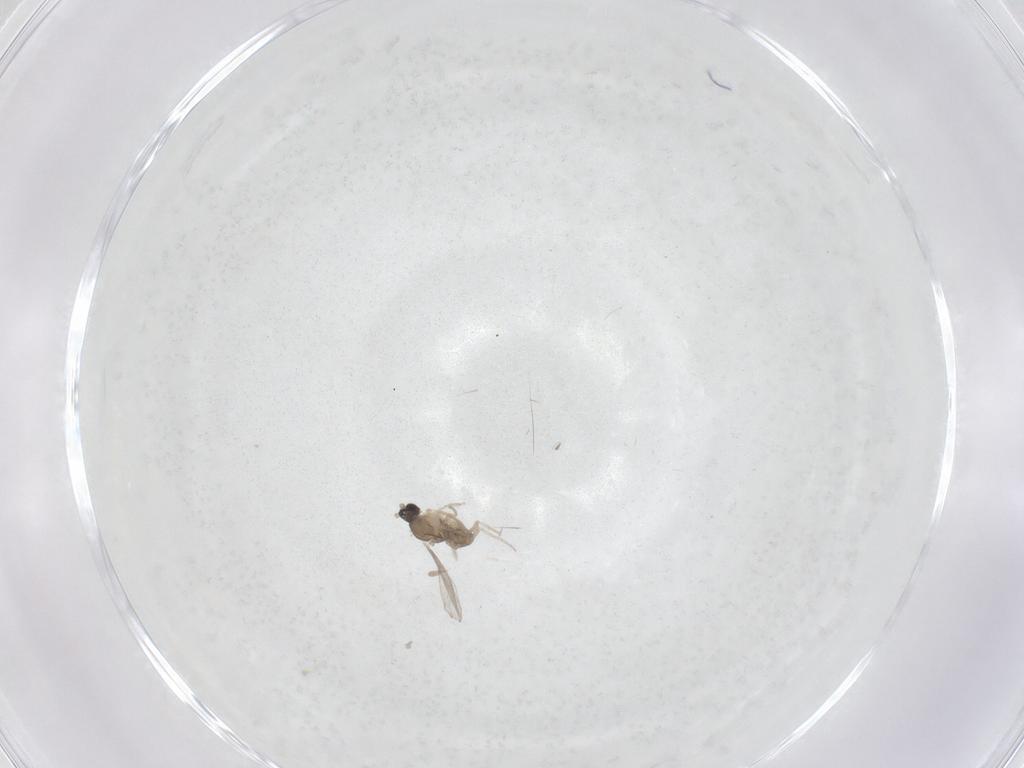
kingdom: Animalia
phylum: Arthropoda
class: Insecta
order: Diptera
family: Cecidomyiidae
